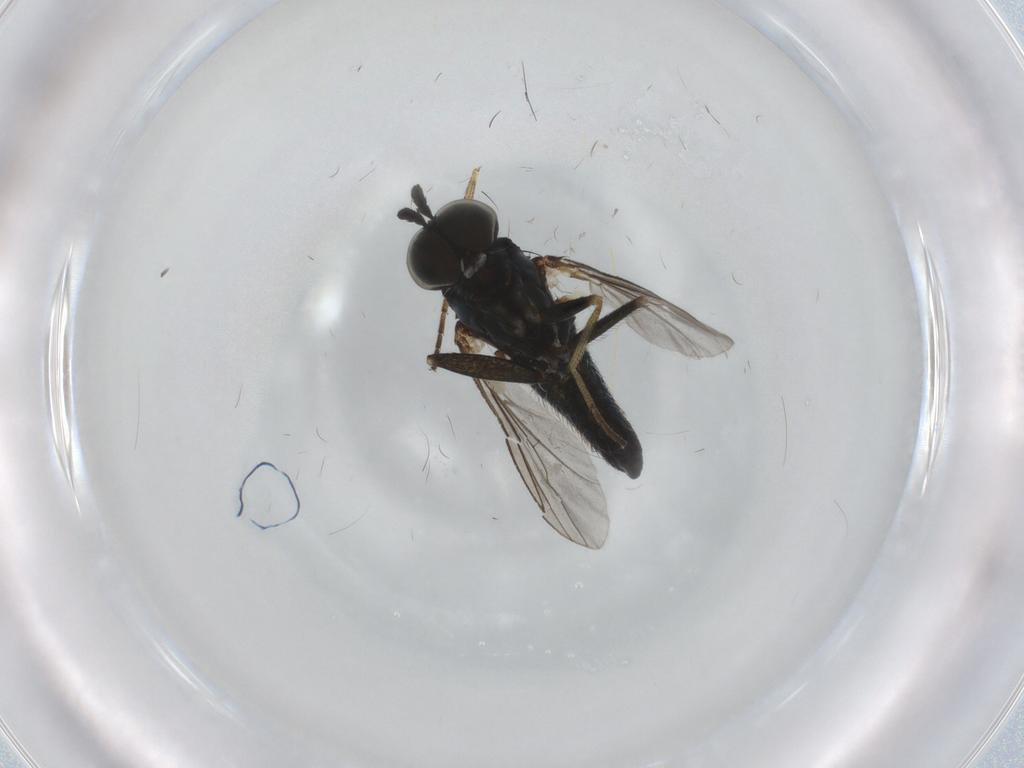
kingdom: Animalia
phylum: Arthropoda
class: Insecta
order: Diptera
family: Dolichopodidae
